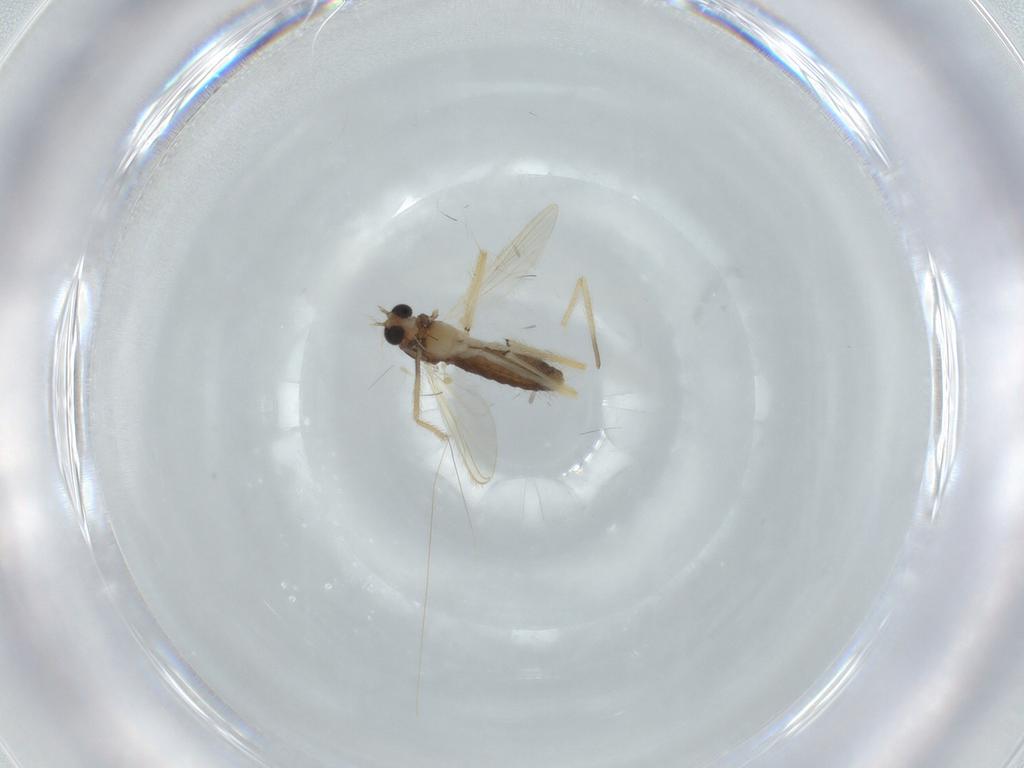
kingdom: Animalia
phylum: Arthropoda
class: Insecta
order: Diptera
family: Chironomidae
